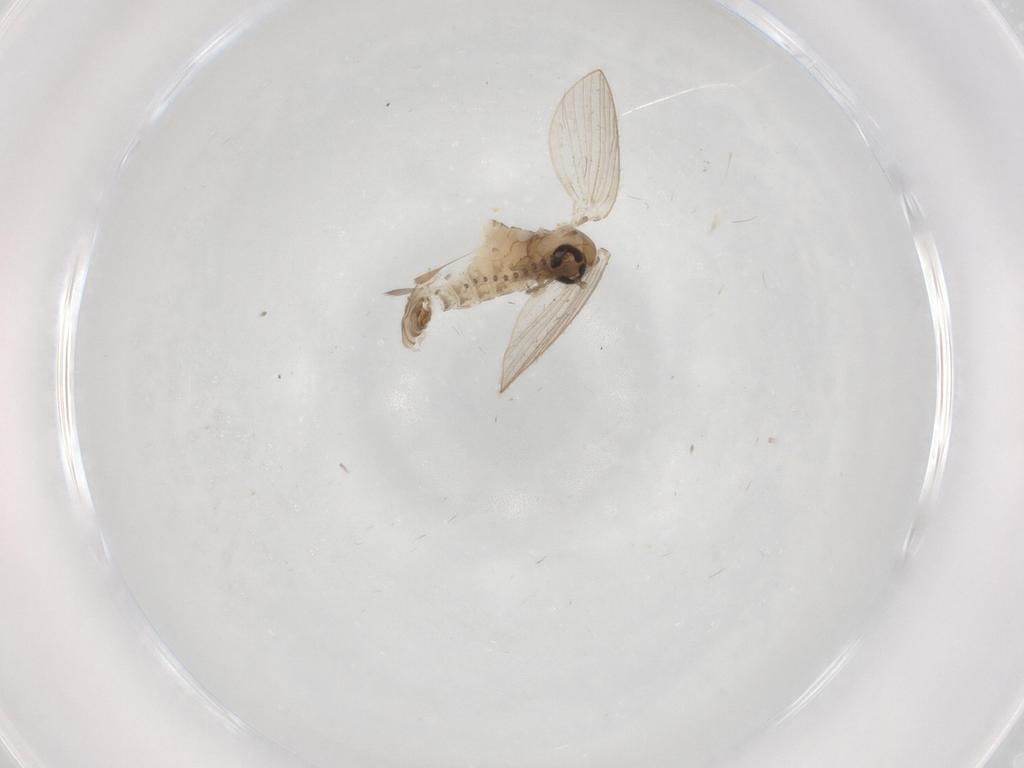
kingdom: Animalia
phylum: Arthropoda
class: Insecta
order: Diptera
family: Psychodidae
